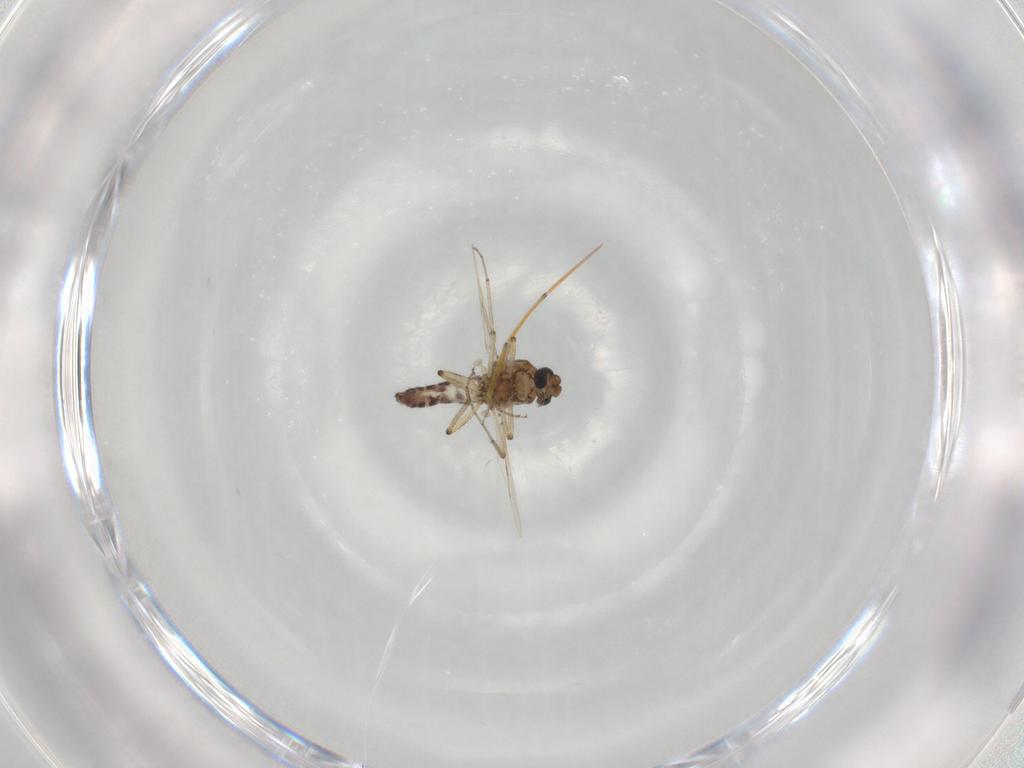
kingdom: Animalia
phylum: Arthropoda
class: Insecta
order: Diptera
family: Ceratopogonidae
